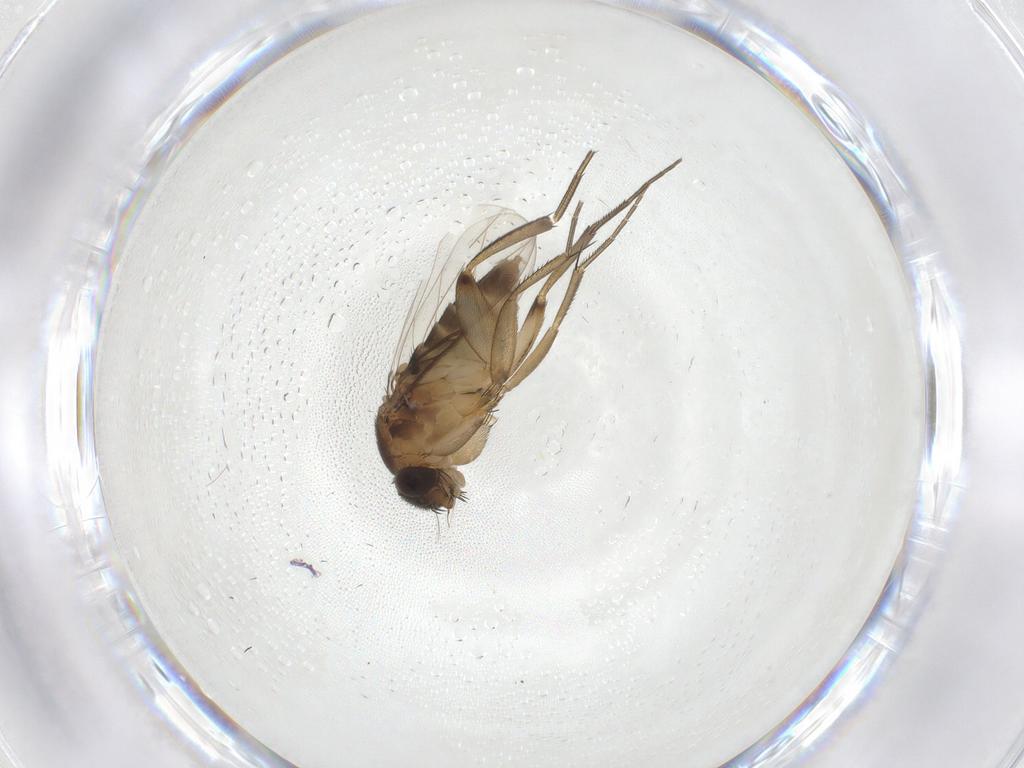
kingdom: Animalia
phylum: Arthropoda
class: Insecta
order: Diptera
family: Phoridae
